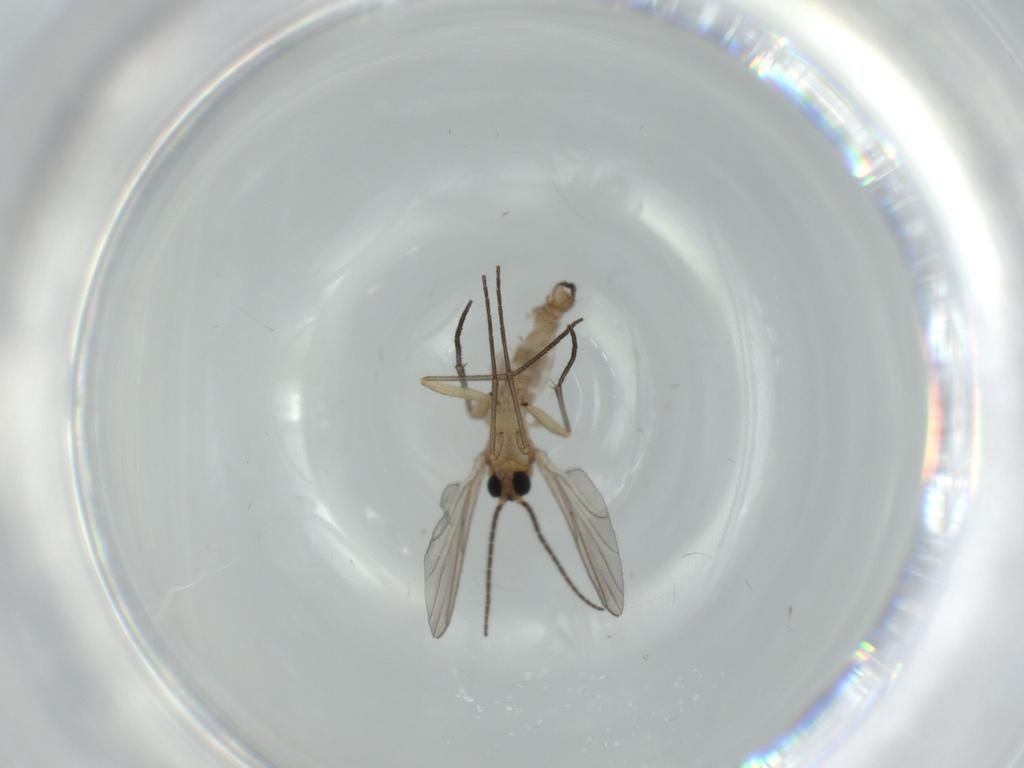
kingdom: Animalia
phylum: Arthropoda
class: Insecta
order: Diptera
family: Sciaridae
